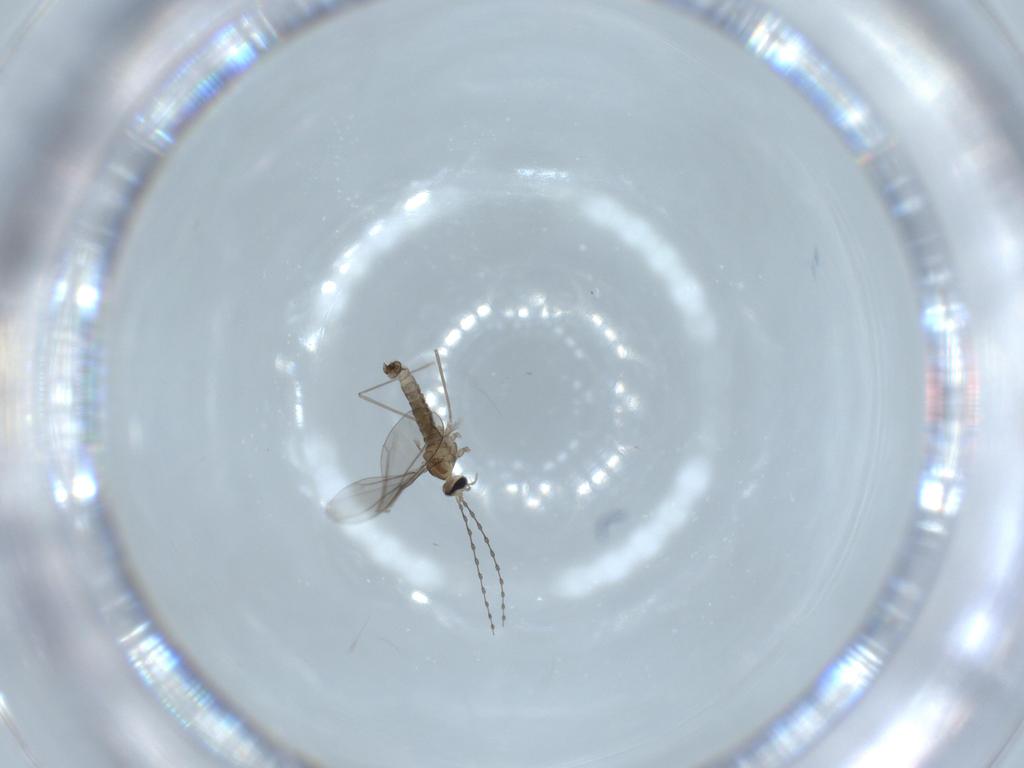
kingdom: Animalia
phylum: Arthropoda
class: Insecta
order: Diptera
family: Cecidomyiidae
